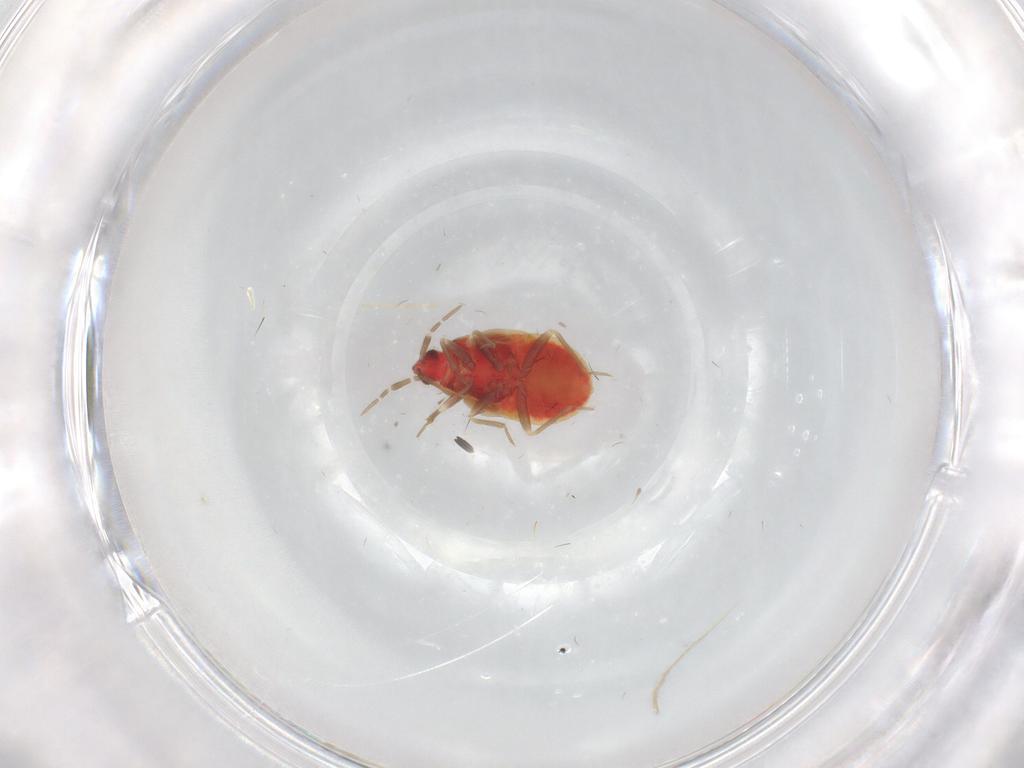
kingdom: Animalia
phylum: Arthropoda
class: Insecta
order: Hemiptera
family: Anthocoridae
